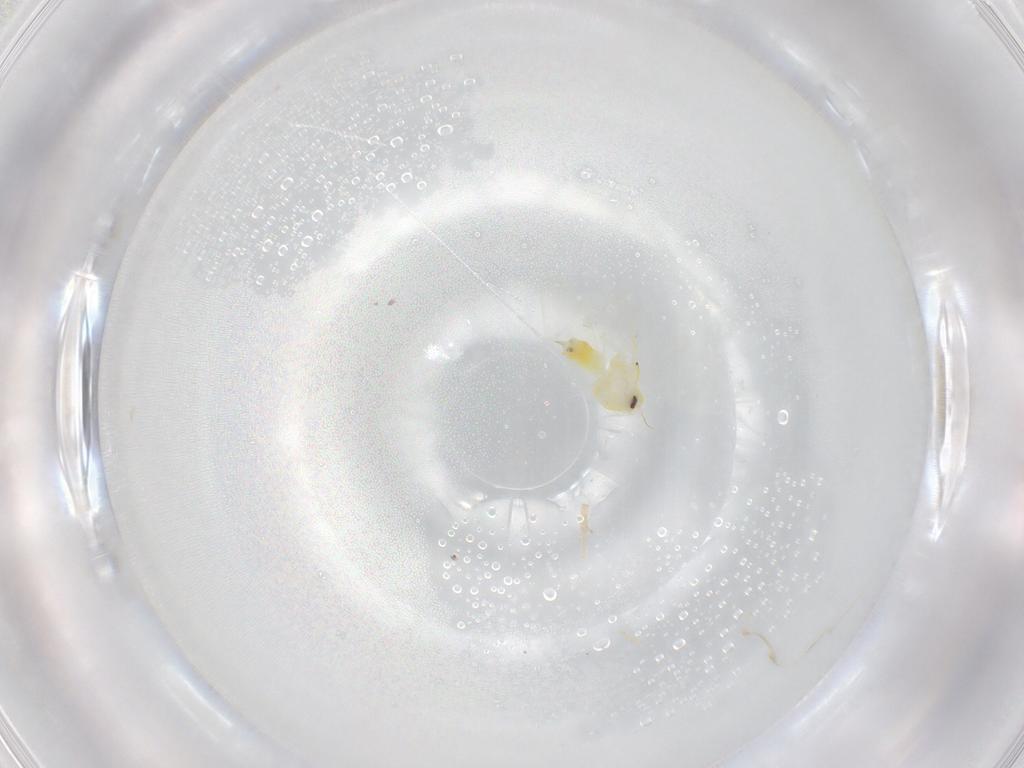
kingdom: Animalia
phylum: Arthropoda
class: Insecta
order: Hemiptera
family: Aleyrodidae
